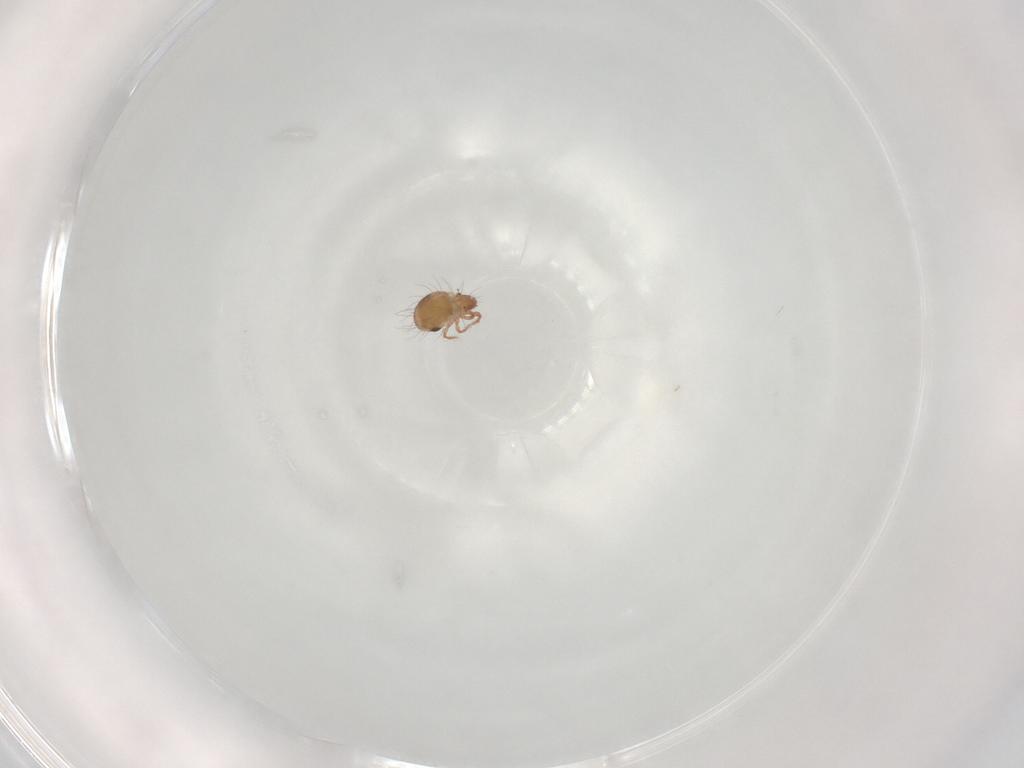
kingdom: Animalia
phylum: Arthropoda
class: Arachnida
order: Sarcoptiformes
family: Humerobatidae
